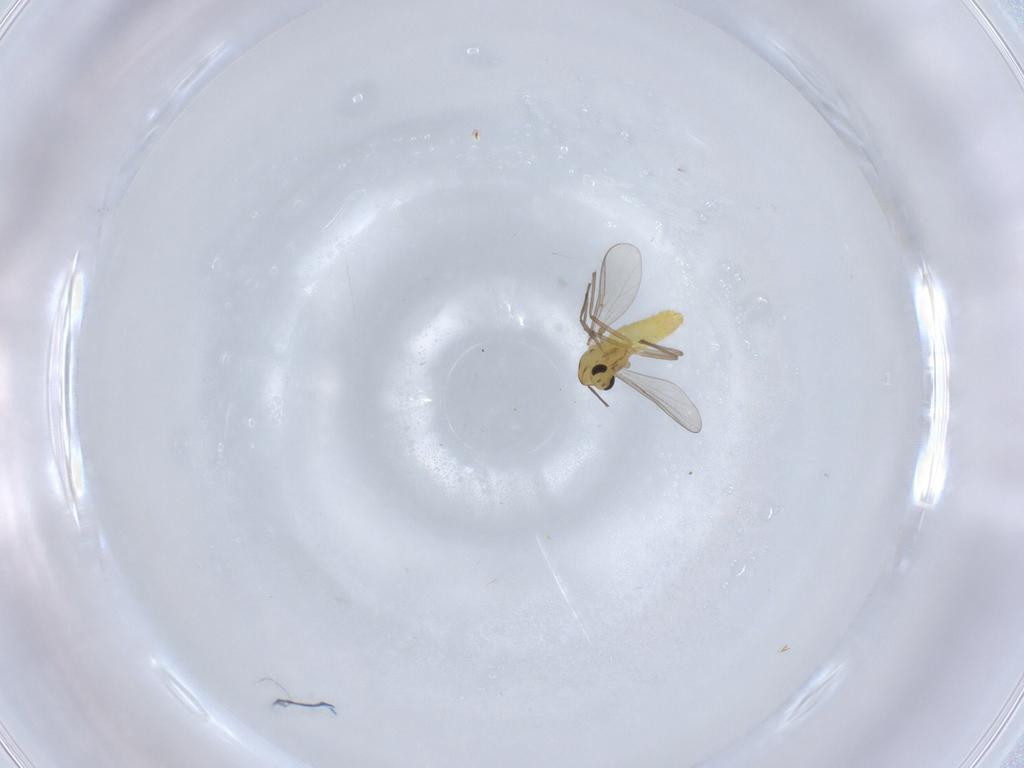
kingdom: Animalia
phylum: Arthropoda
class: Insecta
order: Diptera
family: Chironomidae
